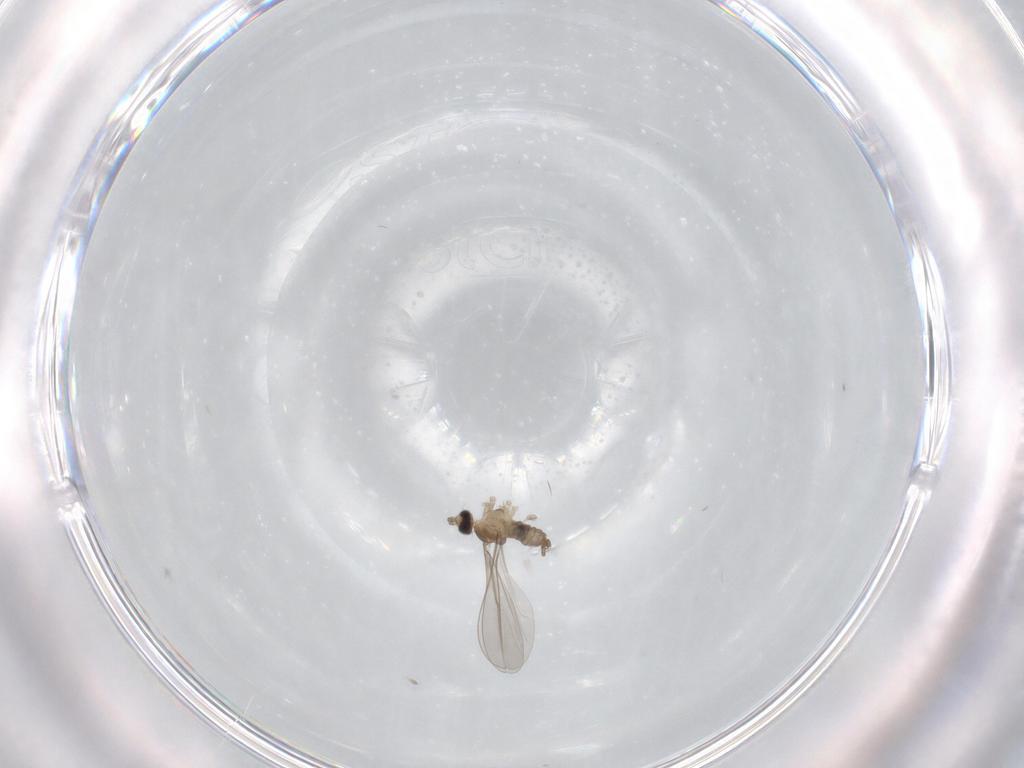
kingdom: Animalia
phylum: Arthropoda
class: Insecta
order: Diptera
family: Cecidomyiidae
